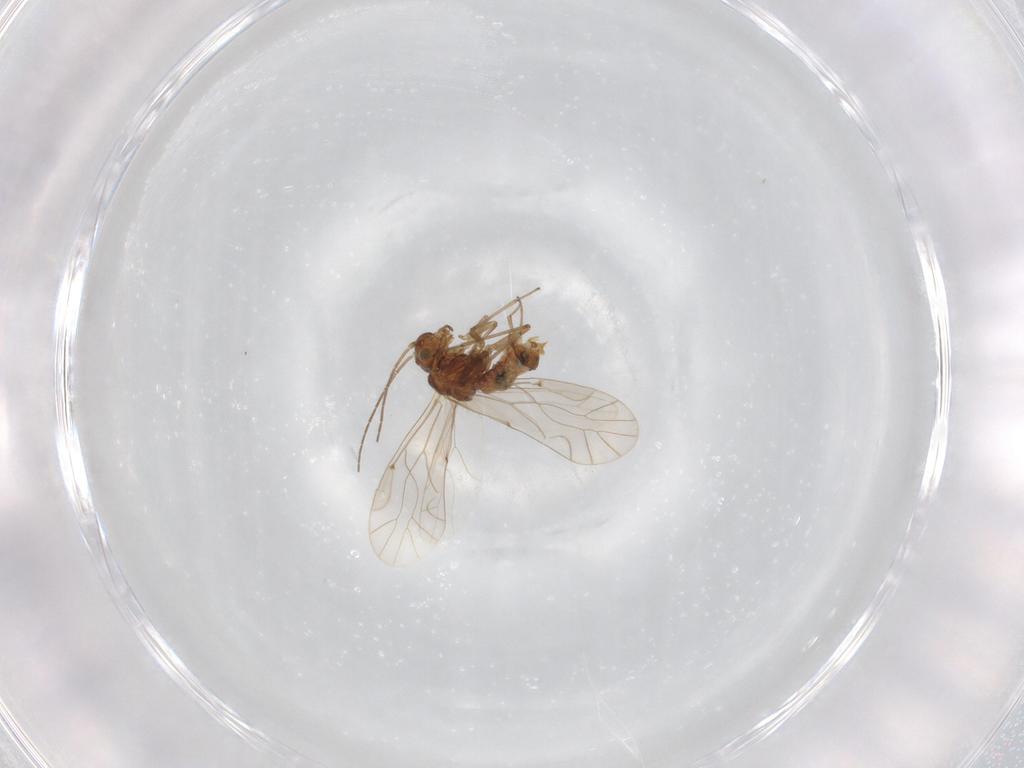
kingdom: Animalia
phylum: Arthropoda
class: Insecta
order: Psocodea
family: Lachesillidae
